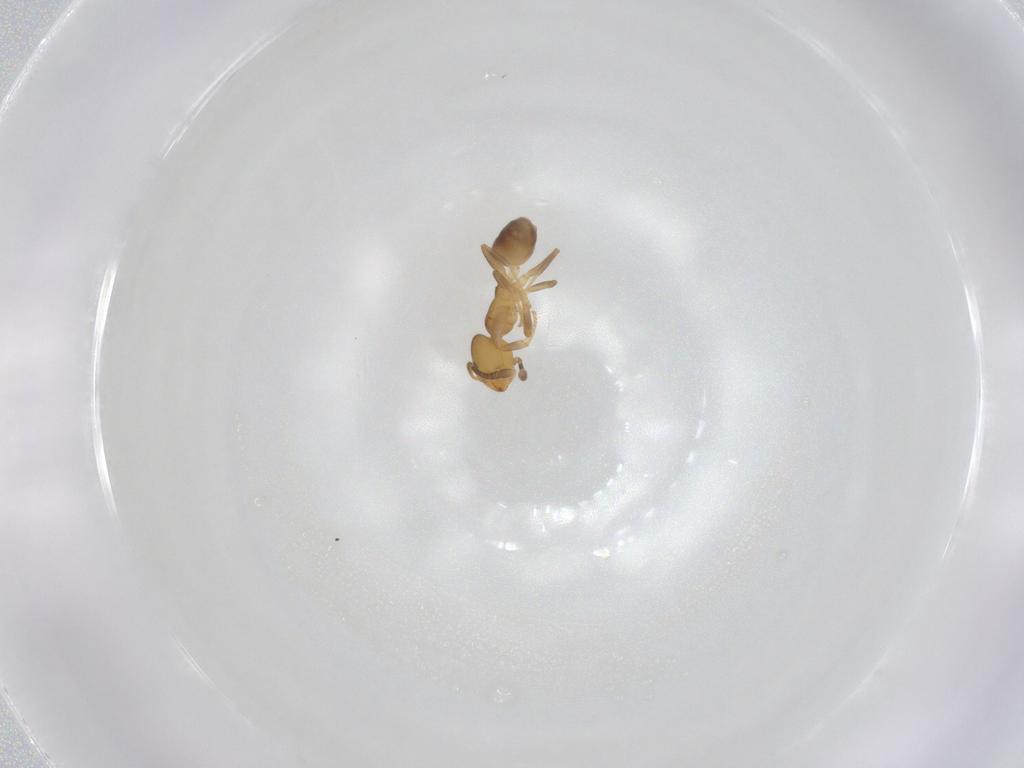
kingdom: Animalia
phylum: Arthropoda
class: Insecta
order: Hymenoptera
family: Formicidae
